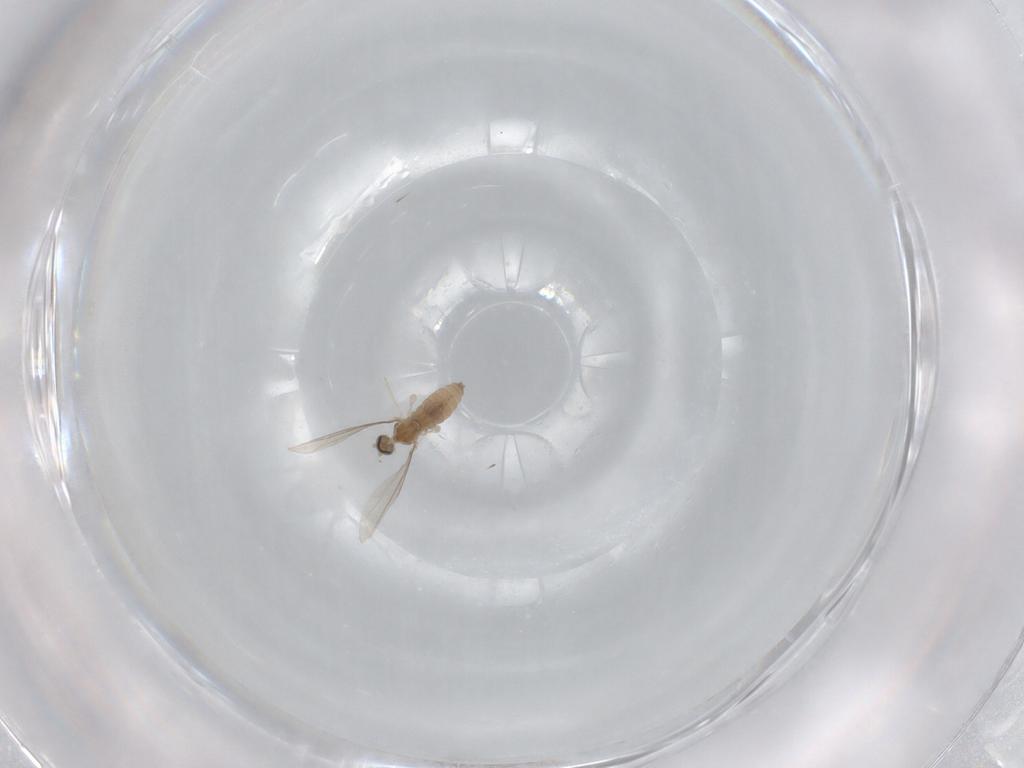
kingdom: Animalia
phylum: Arthropoda
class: Insecta
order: Diptera
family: Cecidomyiidae
